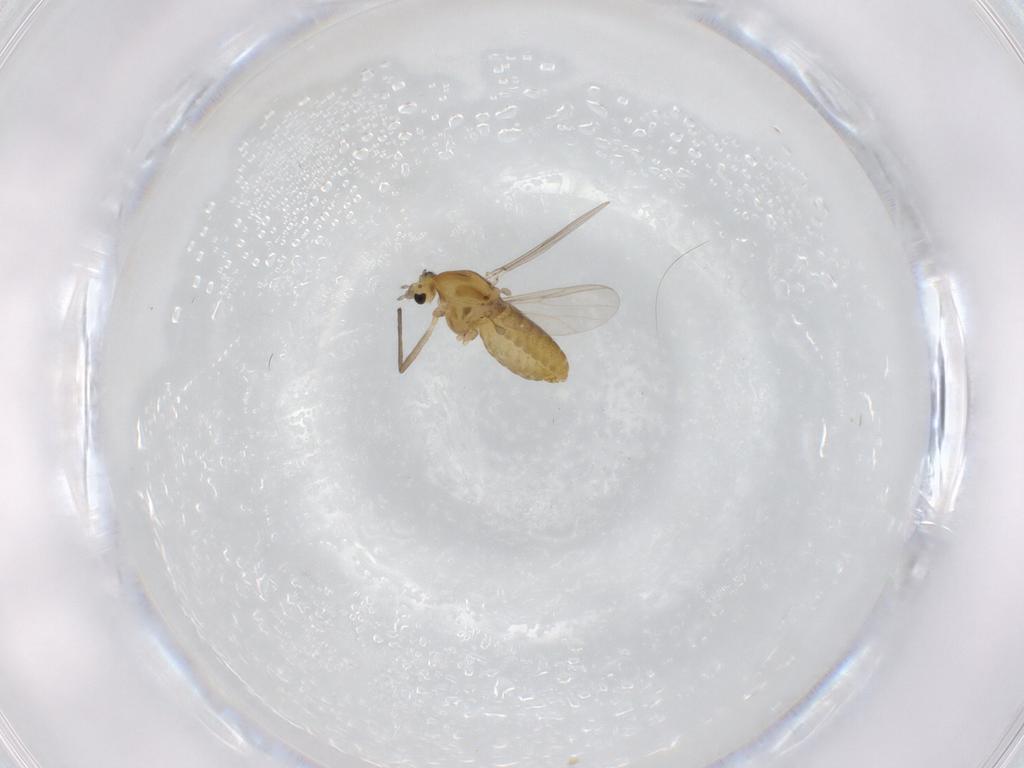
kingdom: Animalia
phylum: Arthropoda
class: Insecta
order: Diptera
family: Chironomidae
